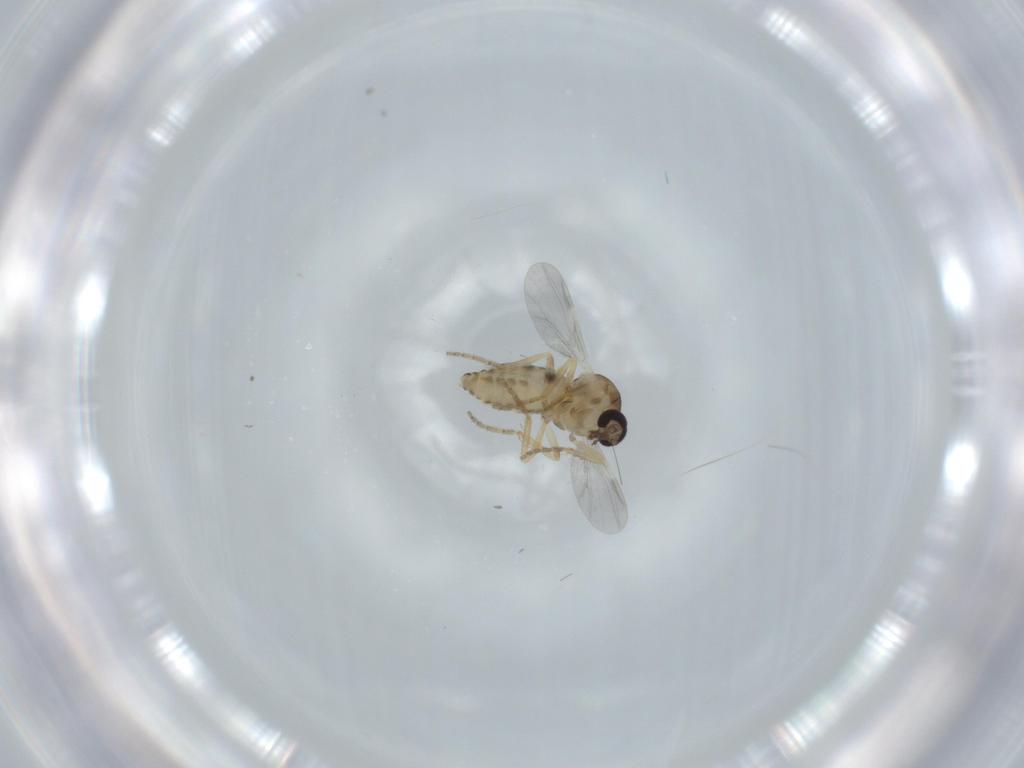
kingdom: Animalia
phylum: Arthropoda
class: Insecta
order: Diptera
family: Ceratopogonidae
